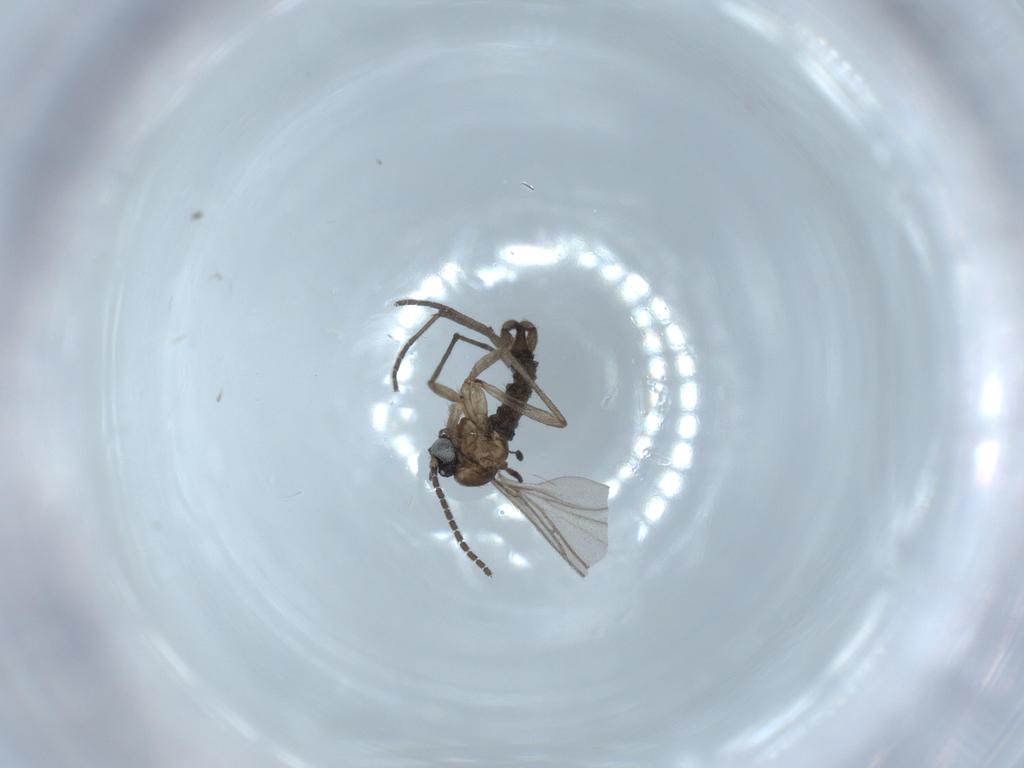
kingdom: Animalia
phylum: Arthropoda
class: Insecta
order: Diptera
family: Sciaridae
